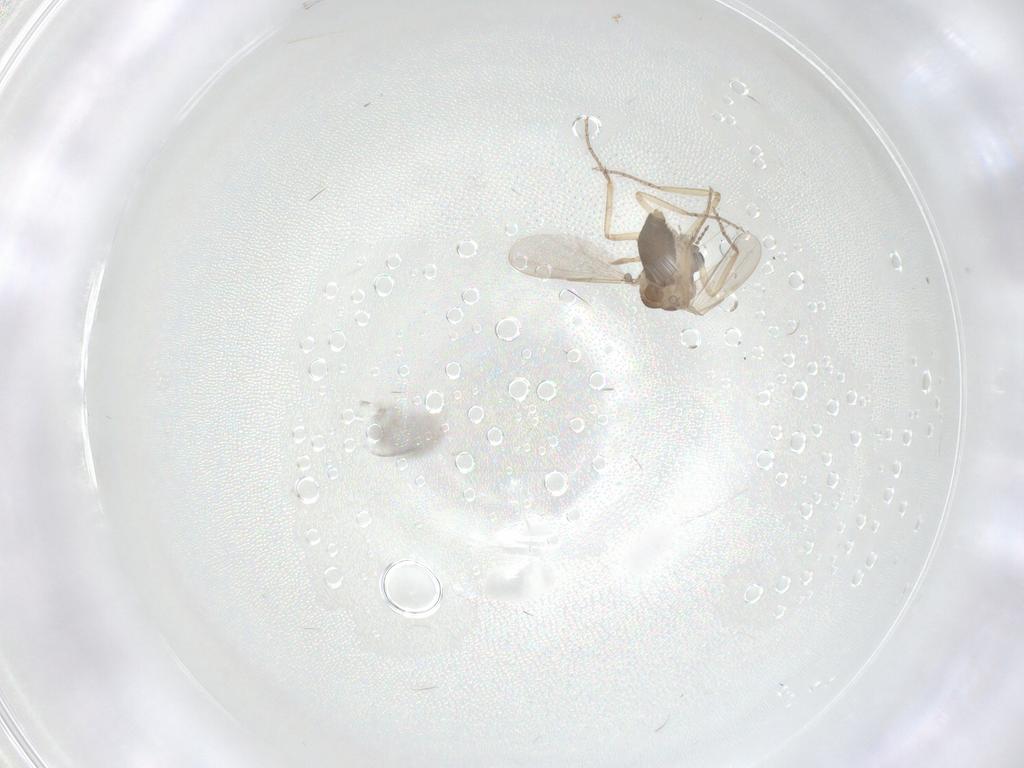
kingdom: Animalia
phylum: Arthropoda
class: Insecta
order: Diptera
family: Ceratopogonidae
